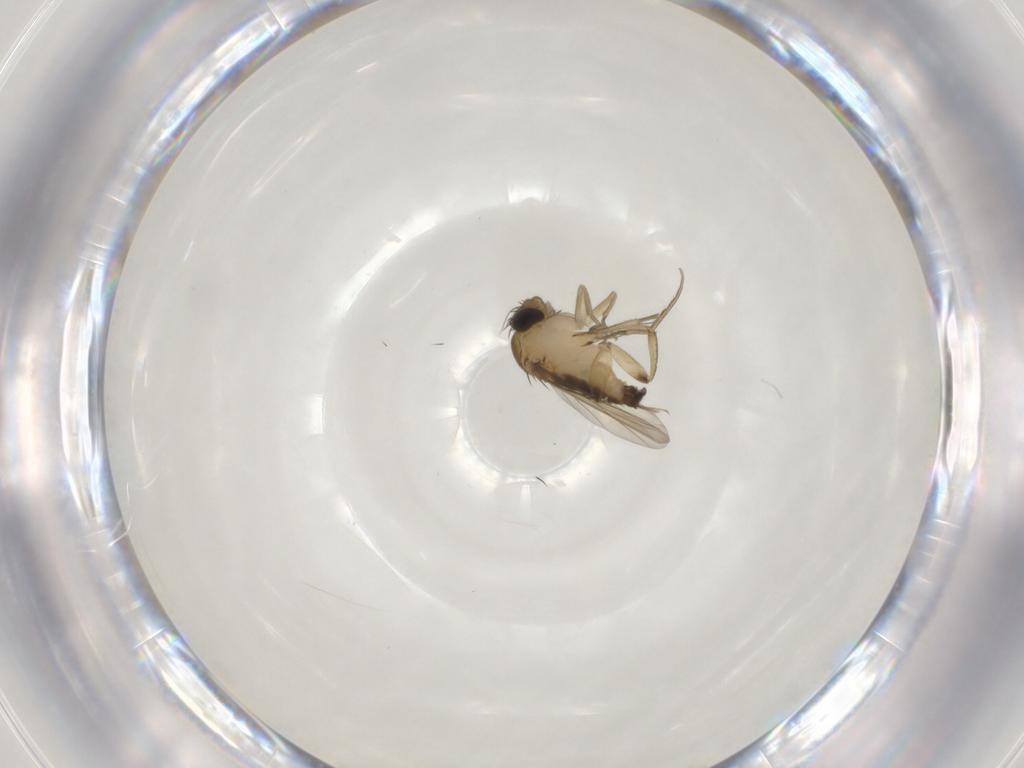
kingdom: Animalia
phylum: Arthropoda
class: Insecta
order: Diptera
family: Phoridae
